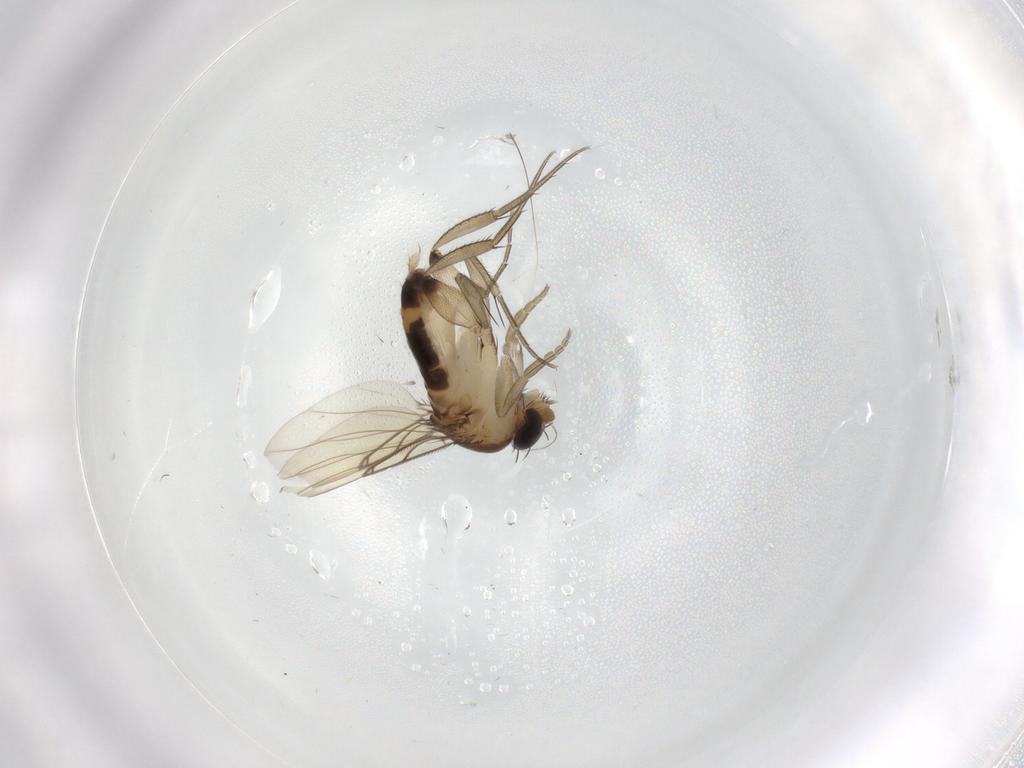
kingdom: Animalia
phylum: Arthropoda
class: Insecta
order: Diptera
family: Phoridae
